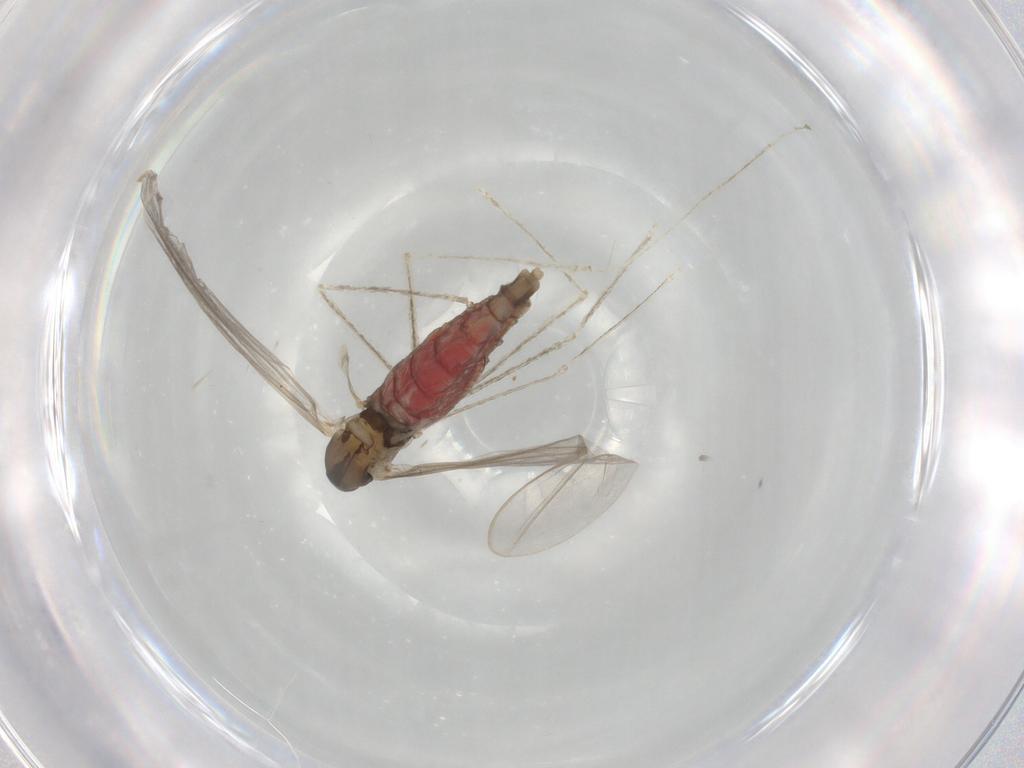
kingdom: Animalia
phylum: Arthropoda
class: Insecta
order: Diptera
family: Cecidomyiidae
